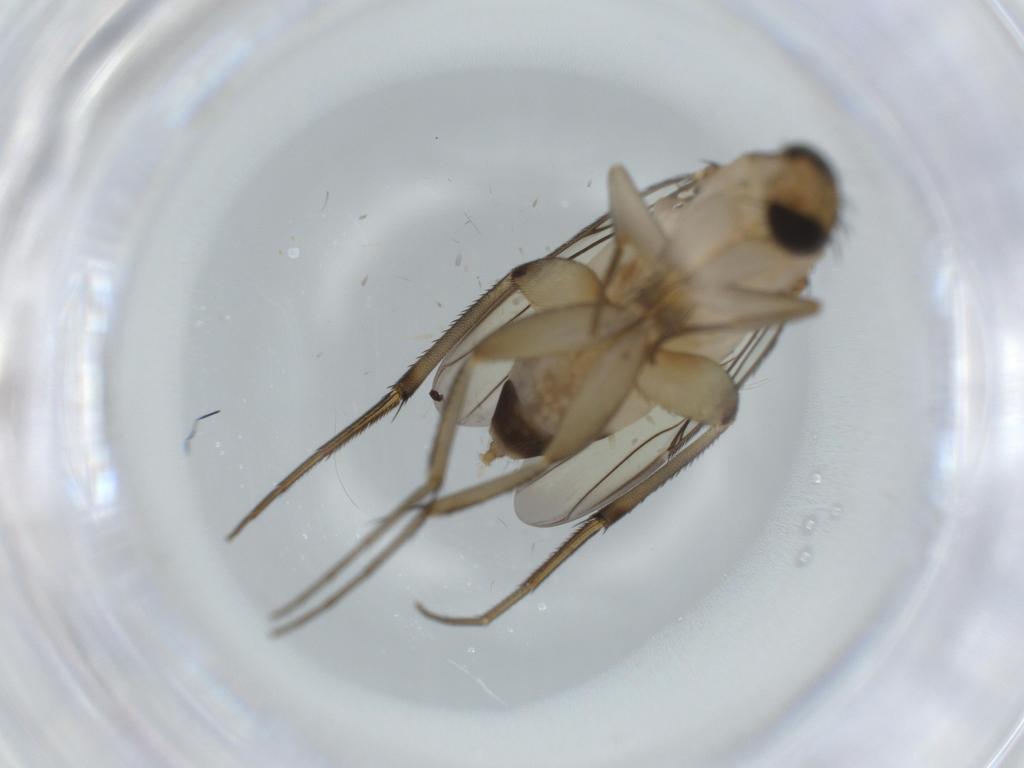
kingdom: Animalia
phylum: Arthropoda
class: Insecta
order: Diptera
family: Phoridae
